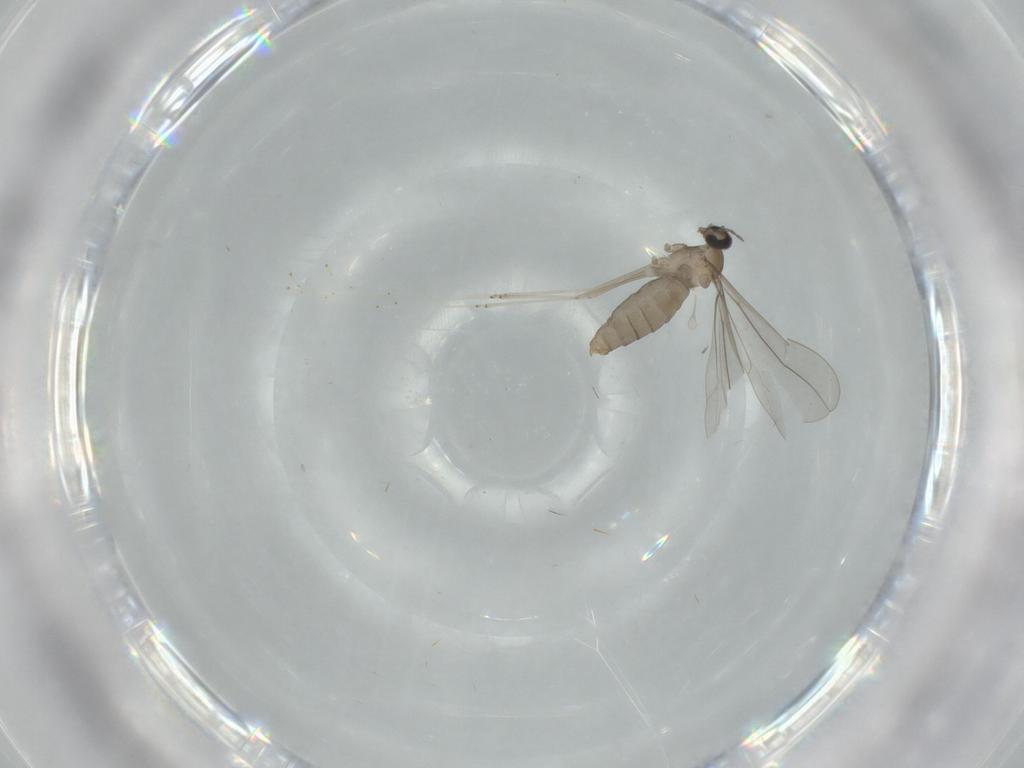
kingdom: Animalia
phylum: Arthropoda
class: Insecta
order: Diptera
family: Cecidomyiidae
